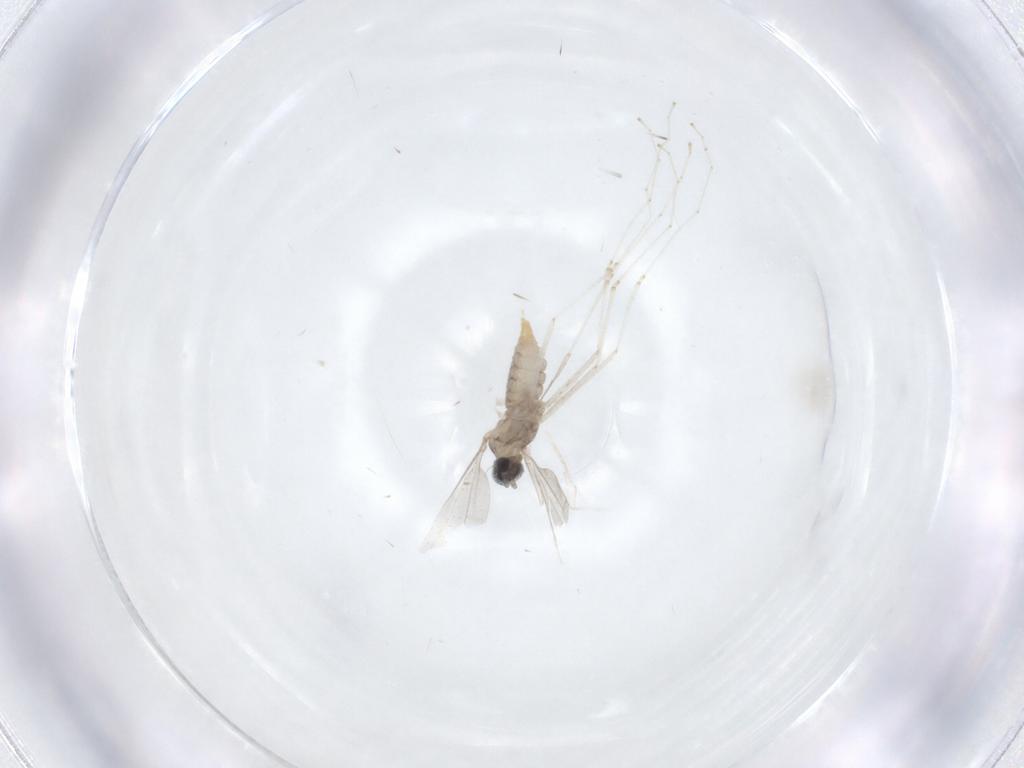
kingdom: Animalia
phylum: Arthropoda
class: Insecta
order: Diptera
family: Cecidomyiidae
